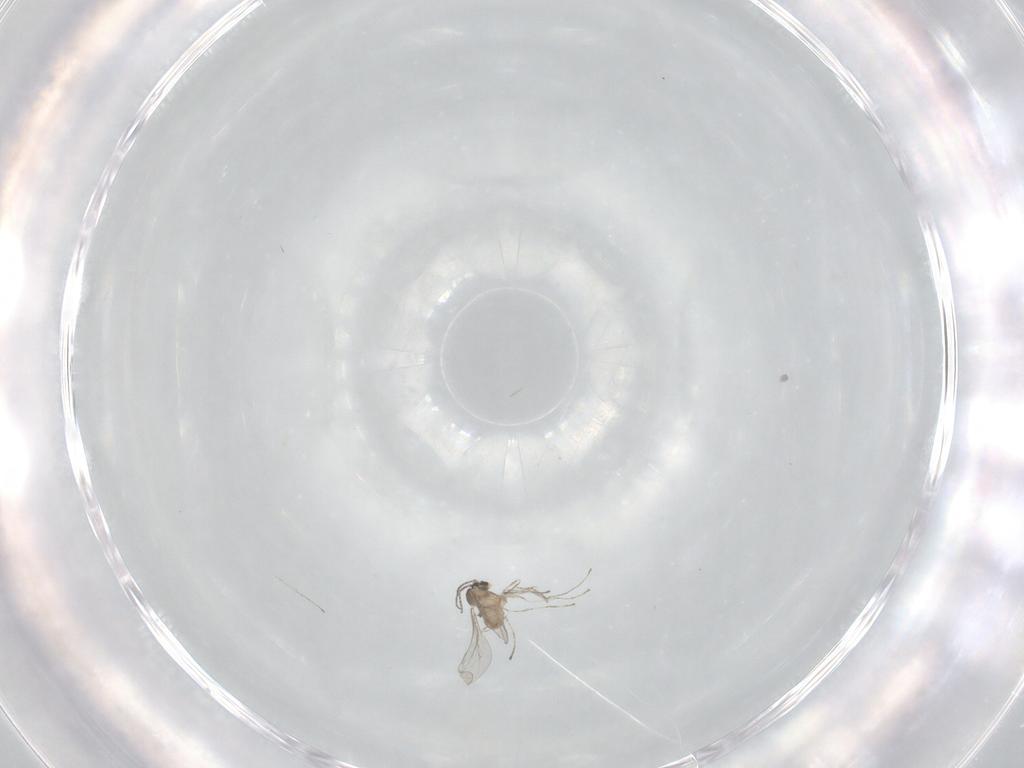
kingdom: Animalia
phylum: Arthropoda
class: Insecta
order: Diptera
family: Cecidomyiidae
